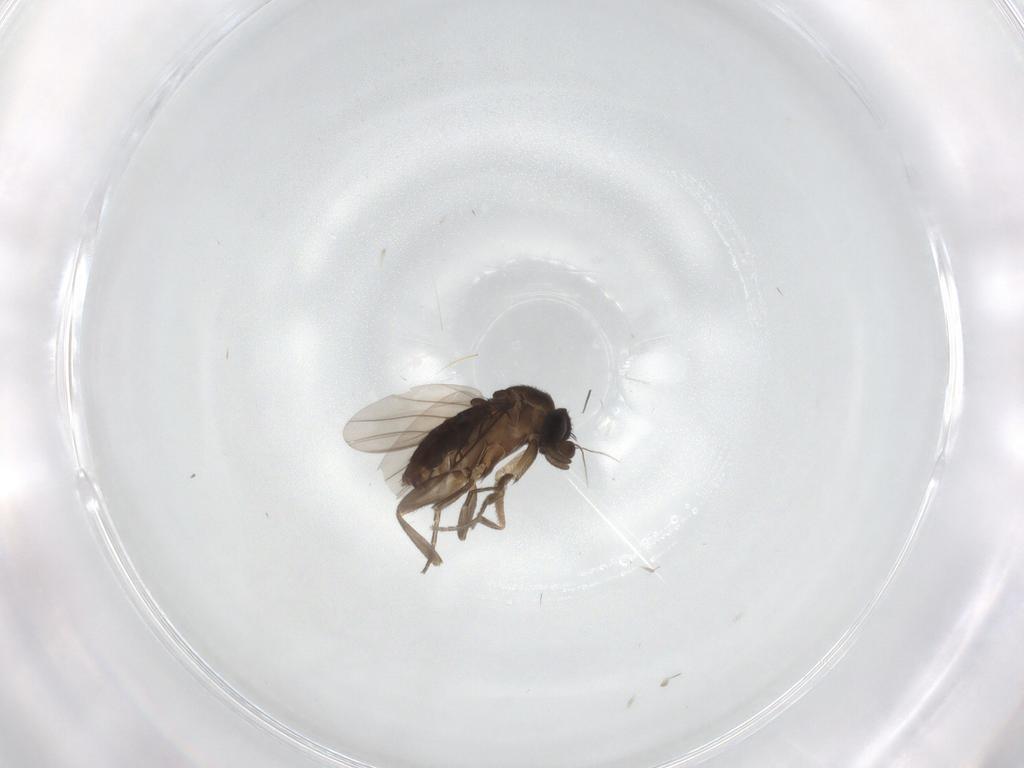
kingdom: Animalia
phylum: Arthropoda
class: Insecta
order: Diptera
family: Phoridae
